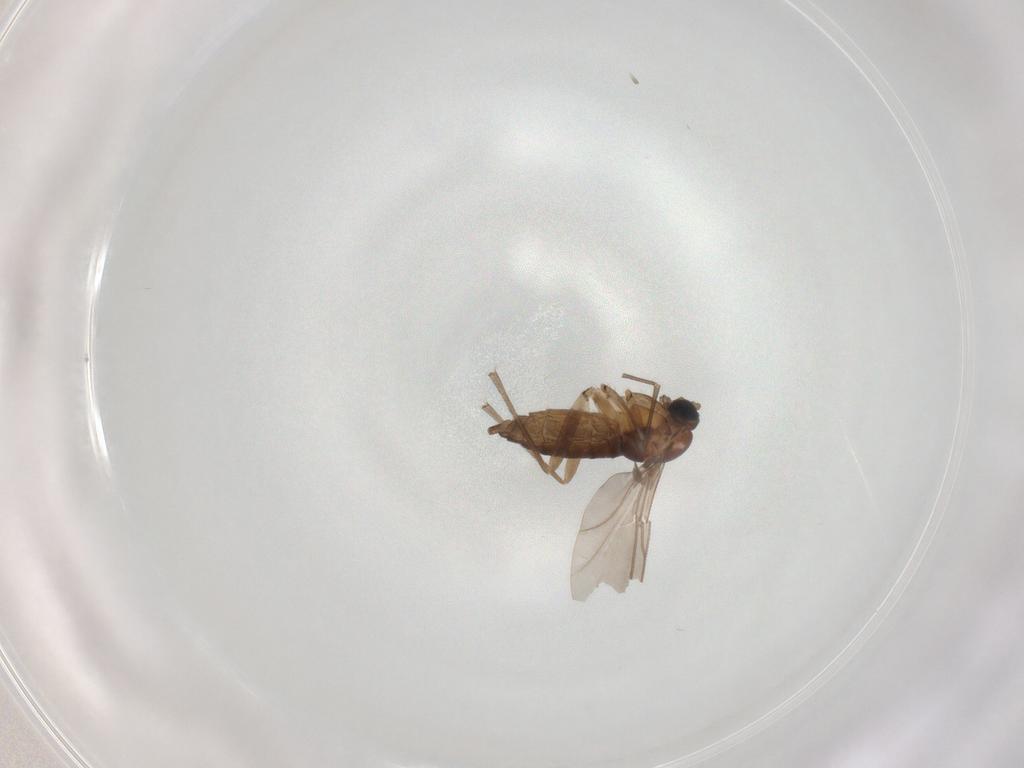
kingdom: Animalia
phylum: Arthropoda
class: Insecta
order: Diptera
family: Sciaridae
